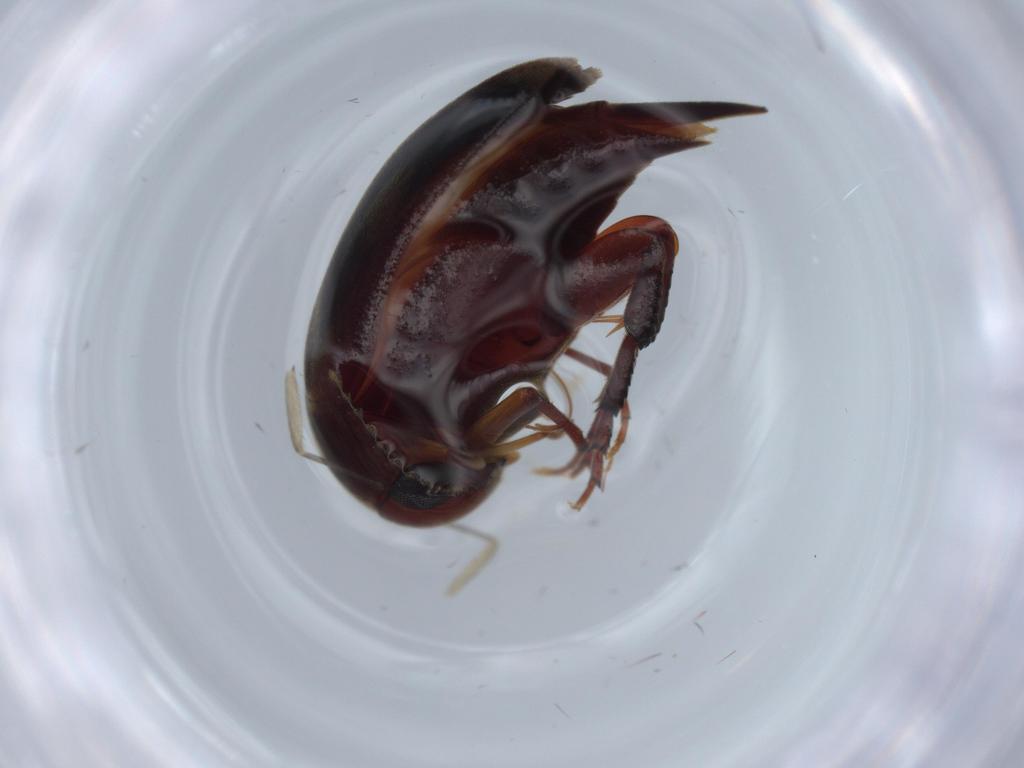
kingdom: Animalia
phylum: Arthropoda
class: Insecta
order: Coleoptera
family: Mordellidae
